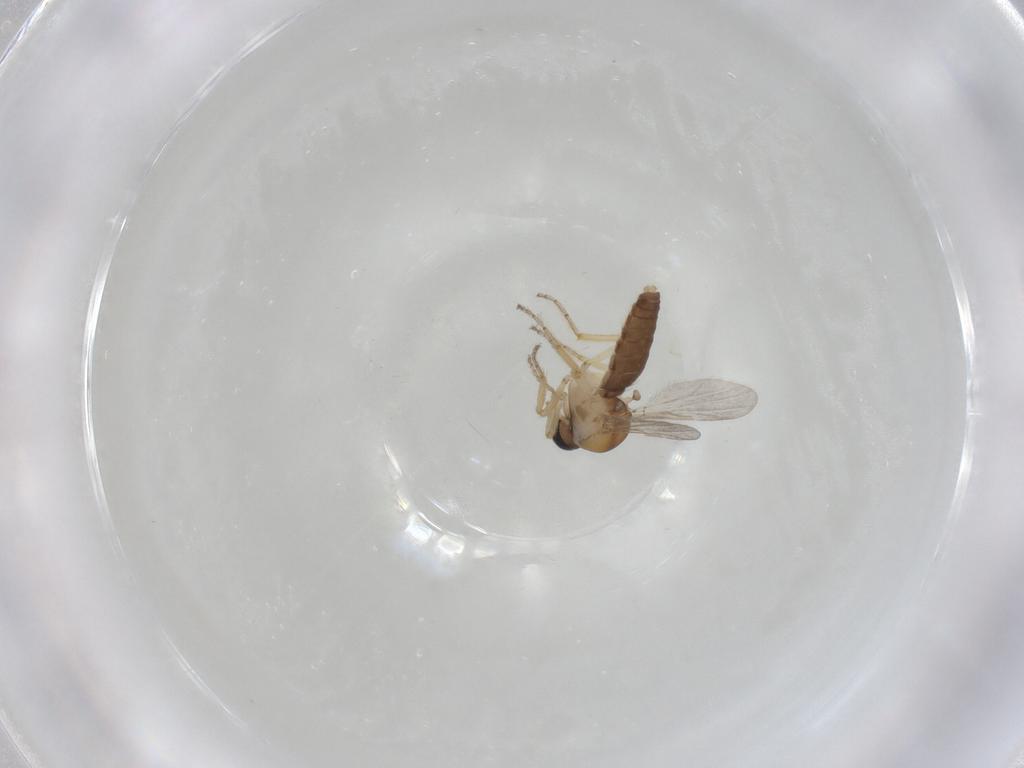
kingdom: Animalia
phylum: Arthropoda
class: Insecta
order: Diptera
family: Ceratopogonidae
